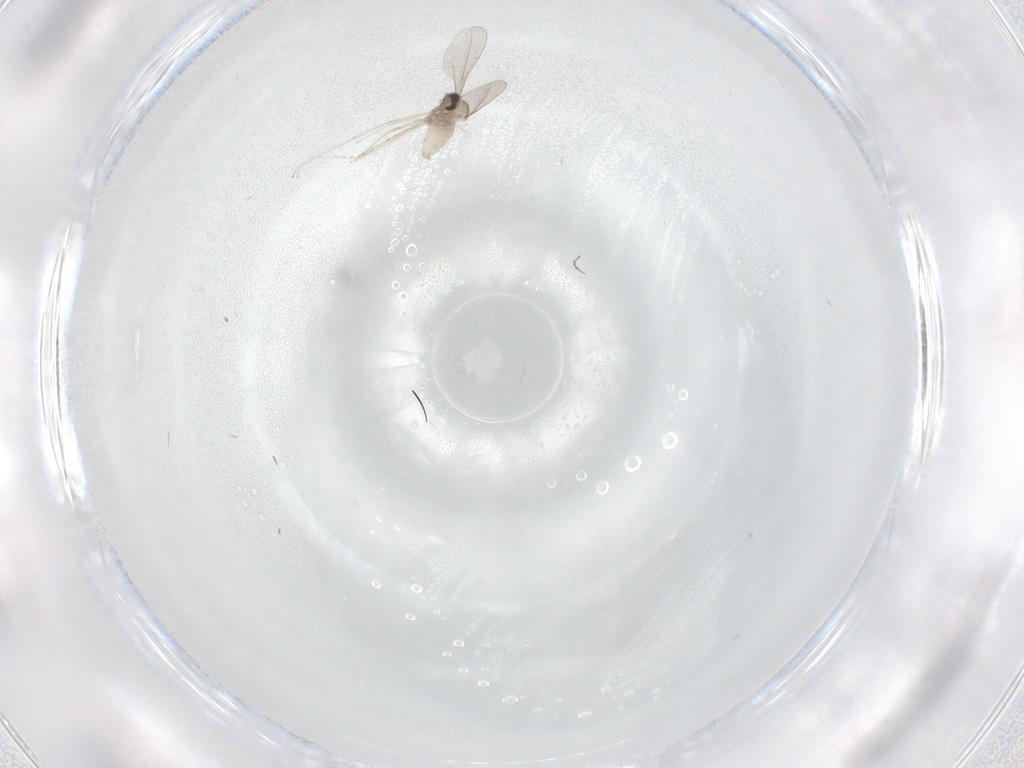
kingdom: Animalia
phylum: Arthropoda
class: Insecta
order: Diptera
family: Cecidomyiidae
